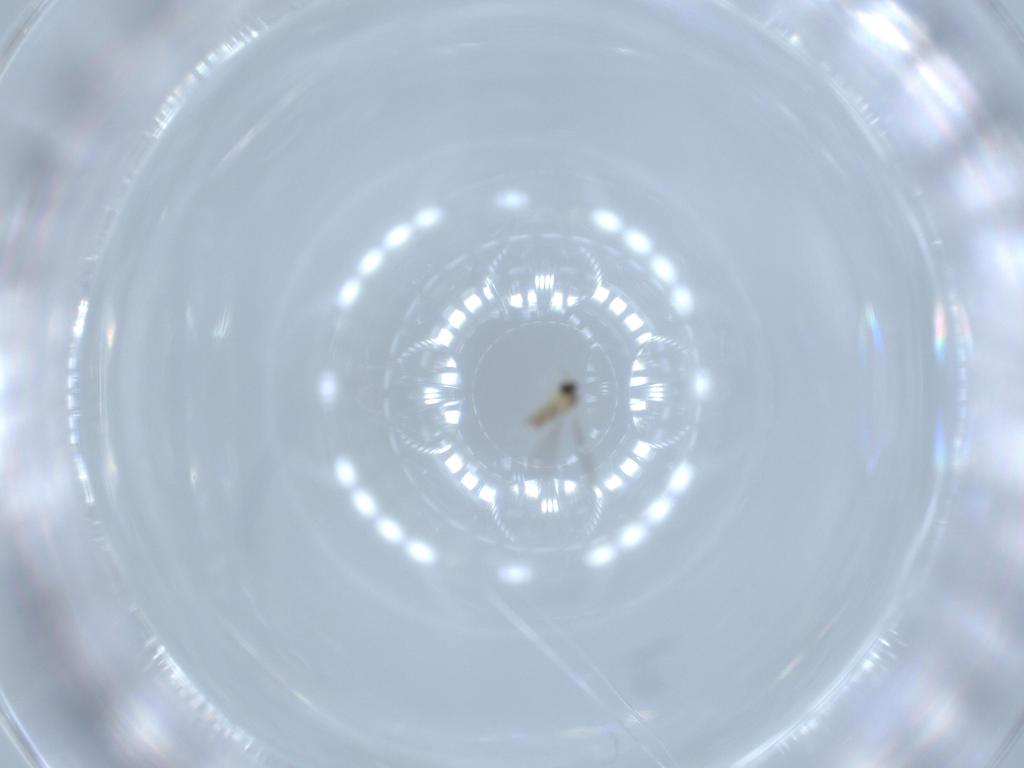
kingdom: Animalia
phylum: Arthropoda
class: Insecta
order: Diptera
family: Cecidomyiidae
